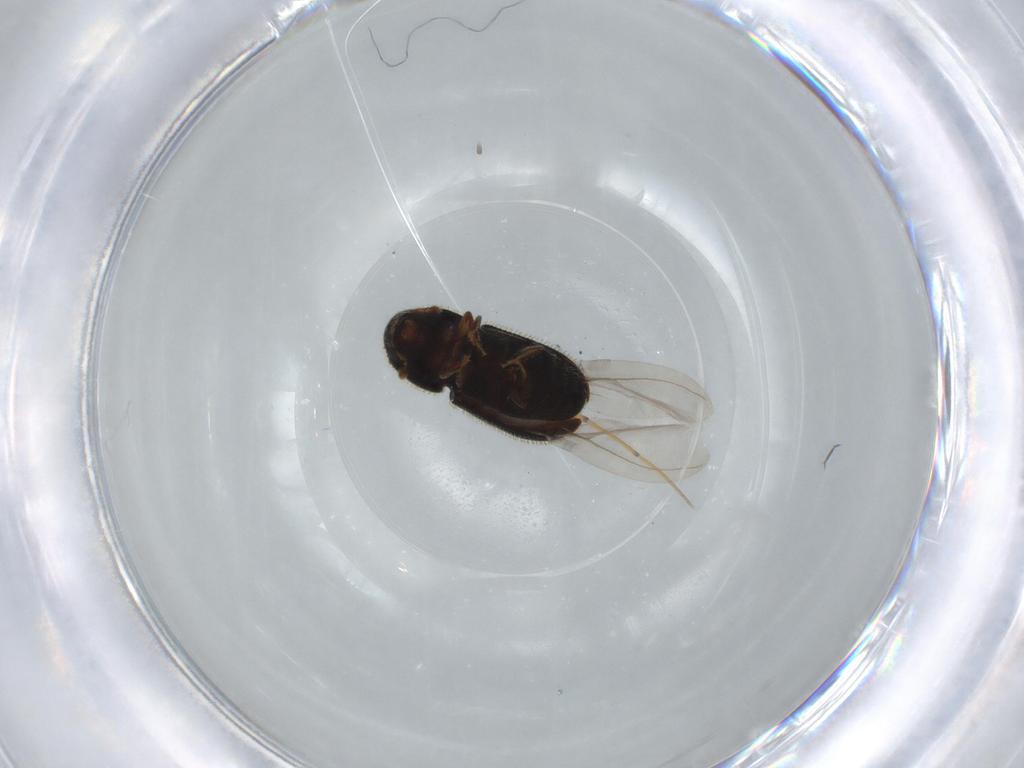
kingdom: Animalia
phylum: Arthropoda
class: Insecta
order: Coleoptera
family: Curculionidae
